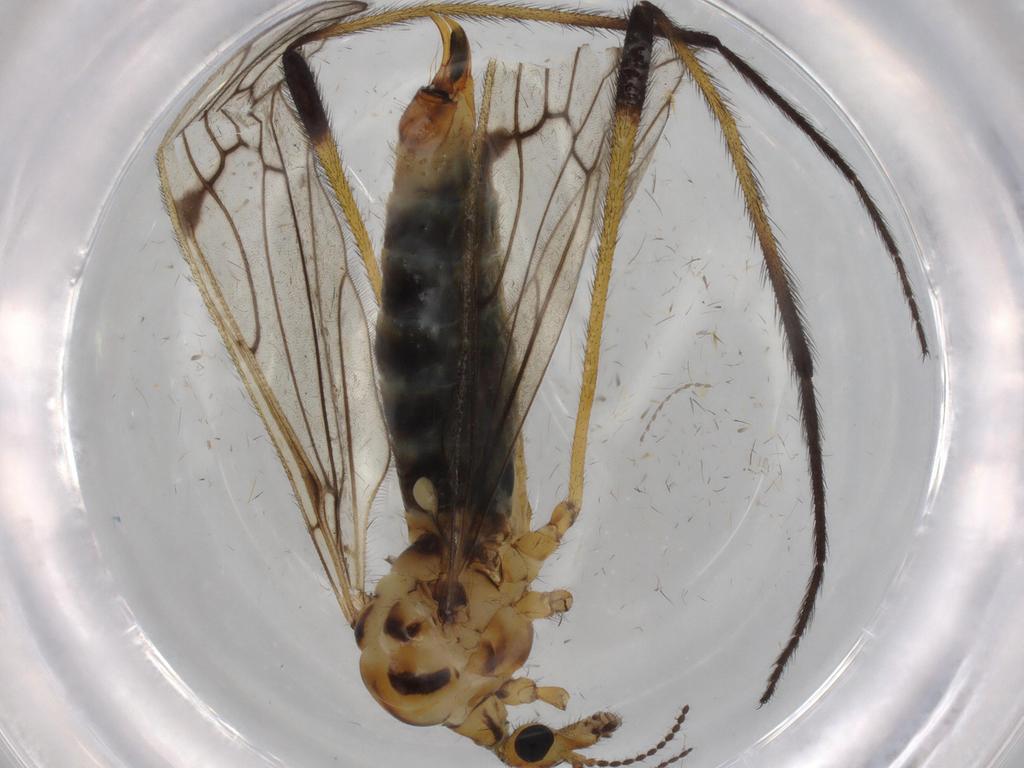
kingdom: Animalia
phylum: Arthropoda
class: Insecta
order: Diptera
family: Limoniidae
